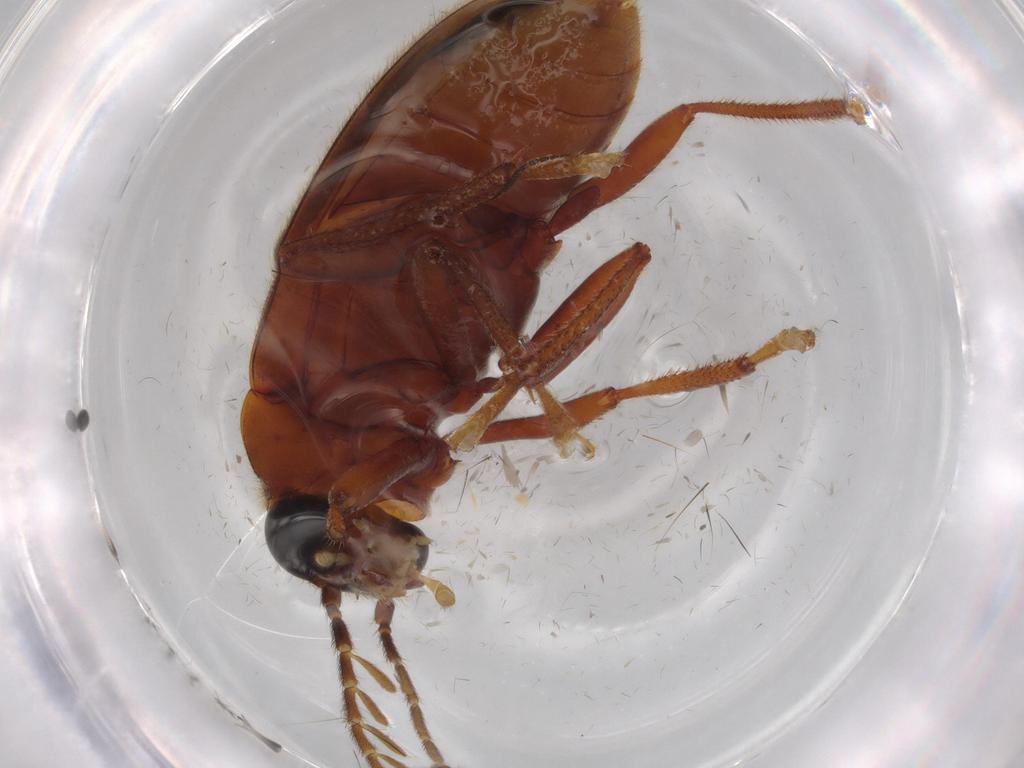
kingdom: Animalia
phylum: Arthropoda
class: Insecta
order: Coleoptera
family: Ptilodactylidae
